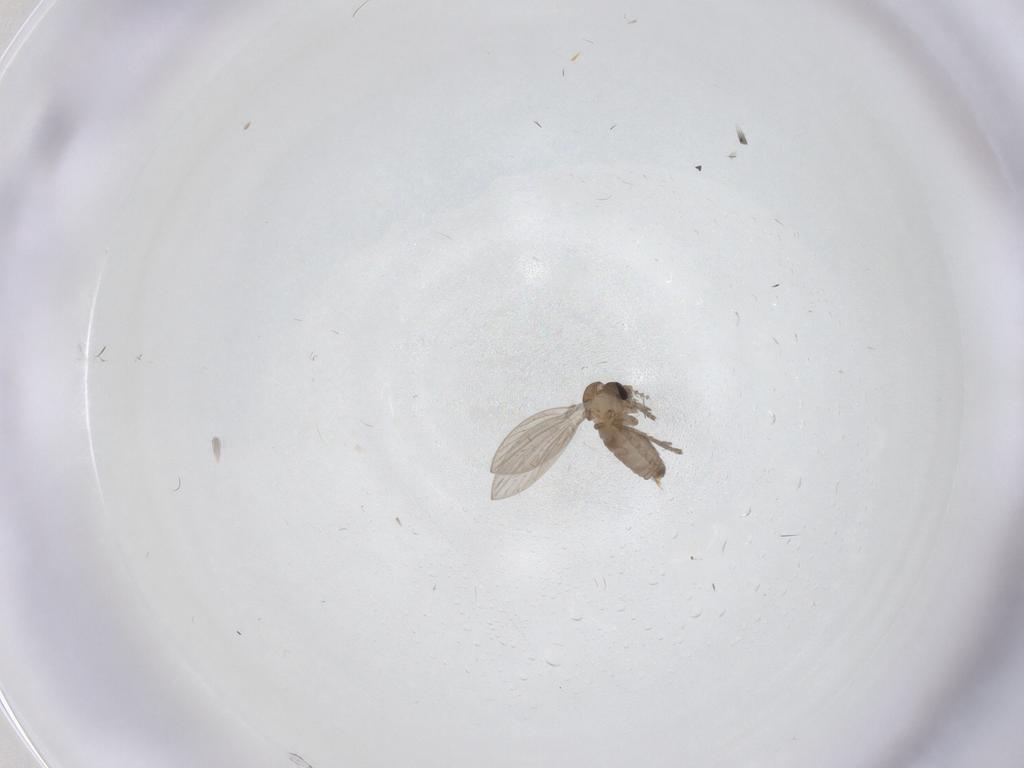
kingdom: Animalia
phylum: Arthropoda
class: Insecta
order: Diptera
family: Psychodidae
